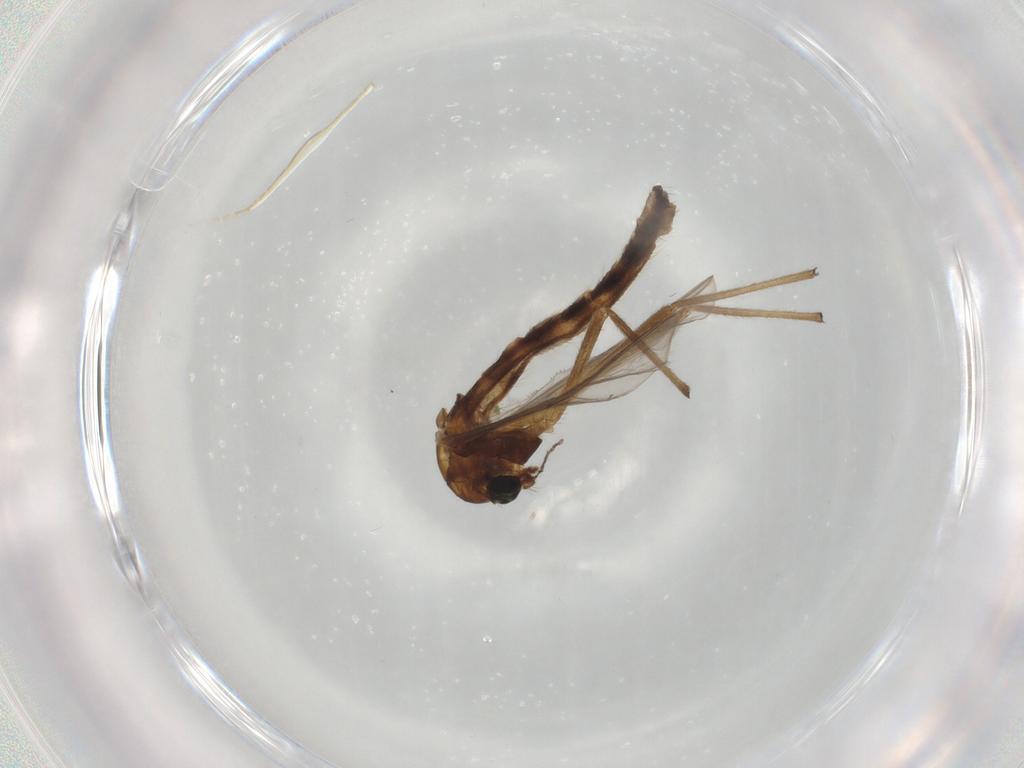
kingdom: Animalia
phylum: Arthropoda
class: Insecta
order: Diptera
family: Chironomidae
